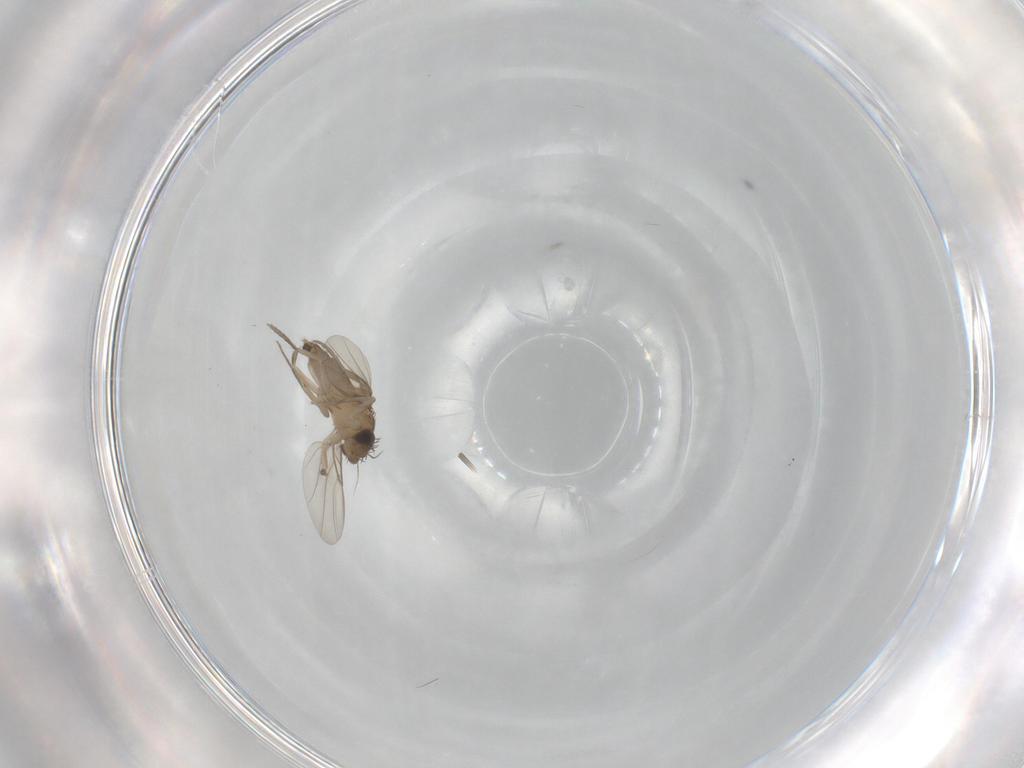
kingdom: Animalia
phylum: Arthropoda
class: Insecta
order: Diptera
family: Phoridae
